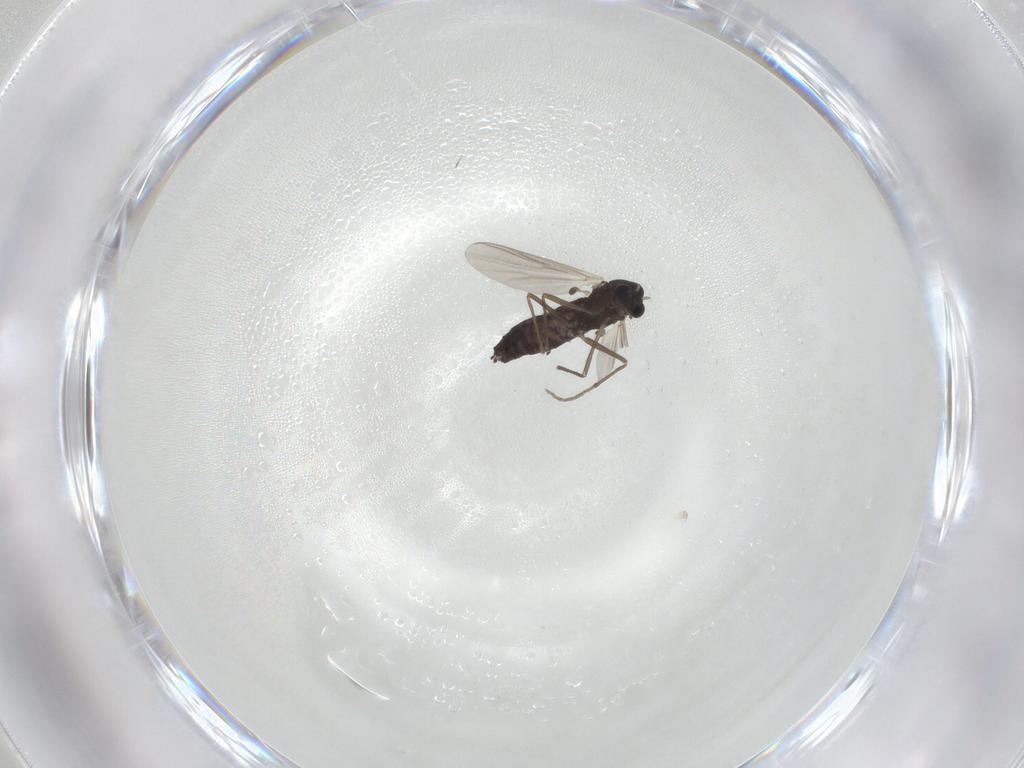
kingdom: Animalia
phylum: Arthropoda
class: Insecta
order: Diptera
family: Chironomidae
